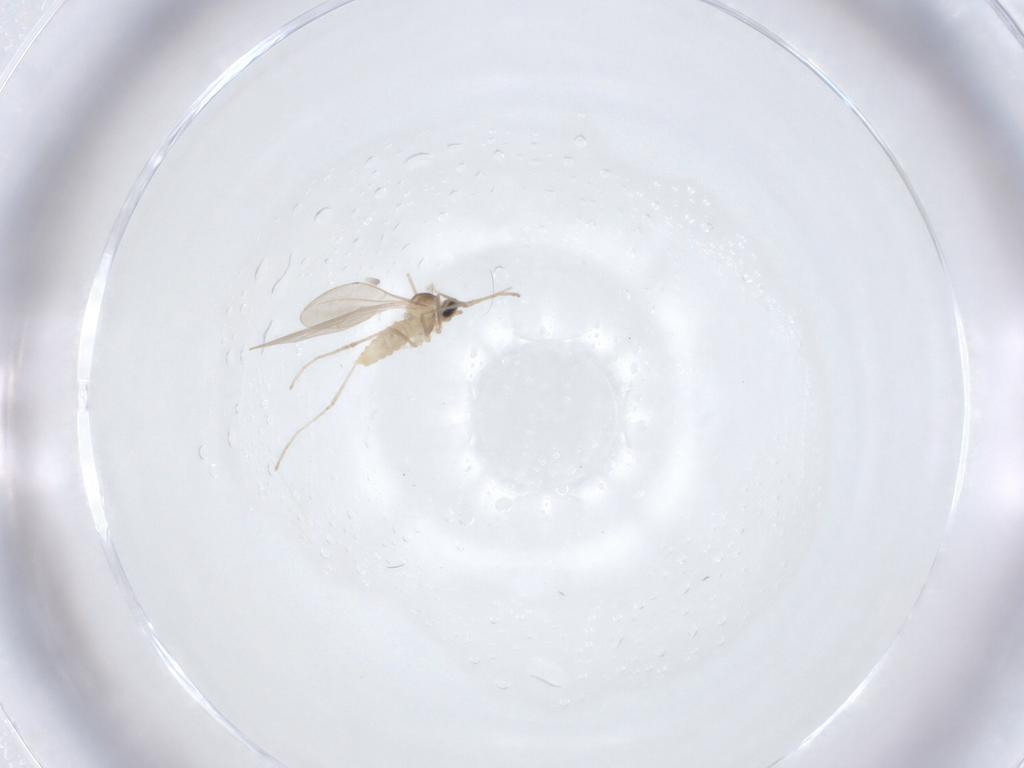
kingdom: Animalia
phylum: Arthropoda
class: Insecta
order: Diptera
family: Cecidomyiidae
